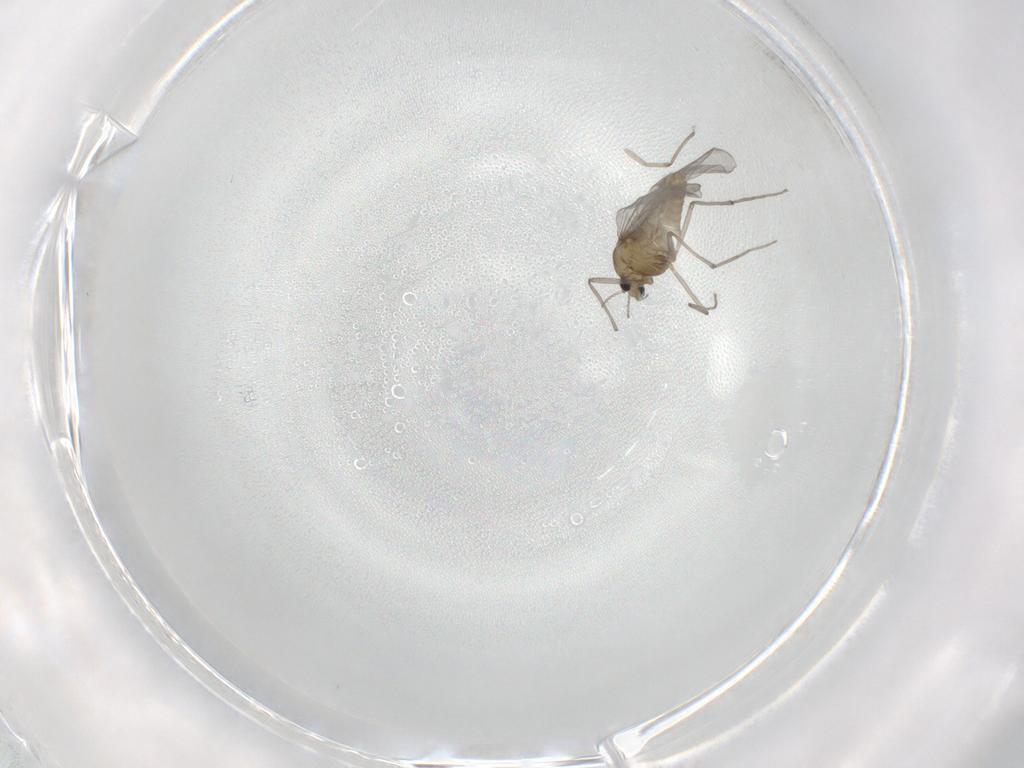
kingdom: Animalia
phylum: Arthropoda
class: Insecta
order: Diptera
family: Chironomidae
